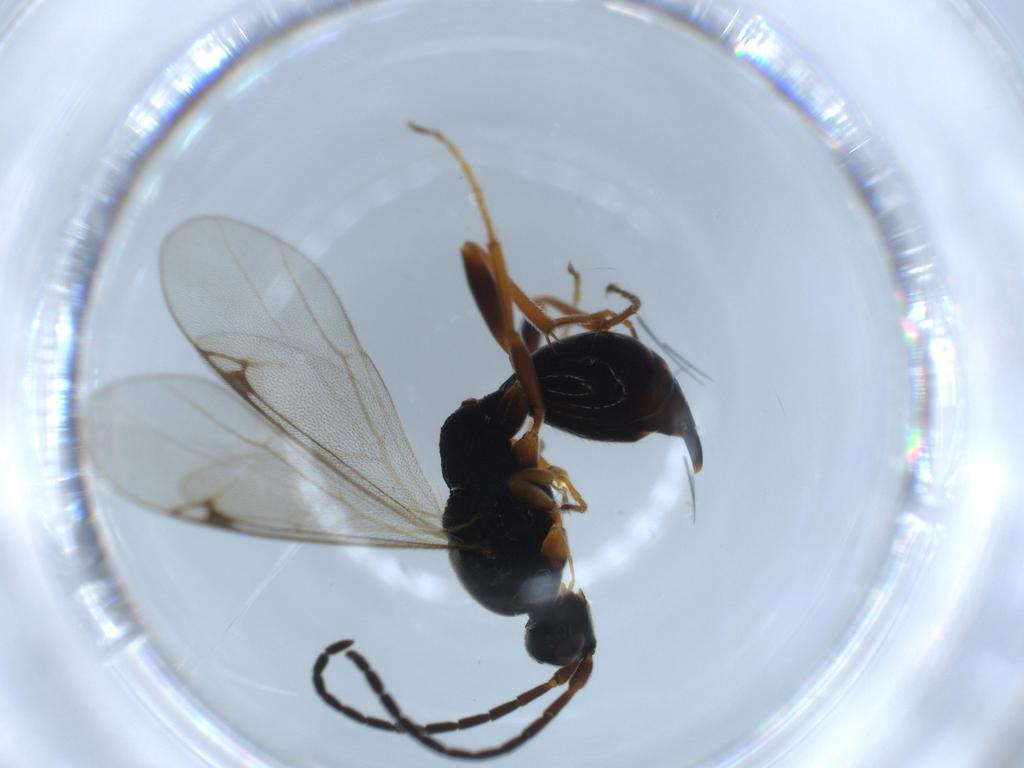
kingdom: Animalia
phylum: Arthropoda
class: Insecta
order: Hymenoptera
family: Proctotrupidae
